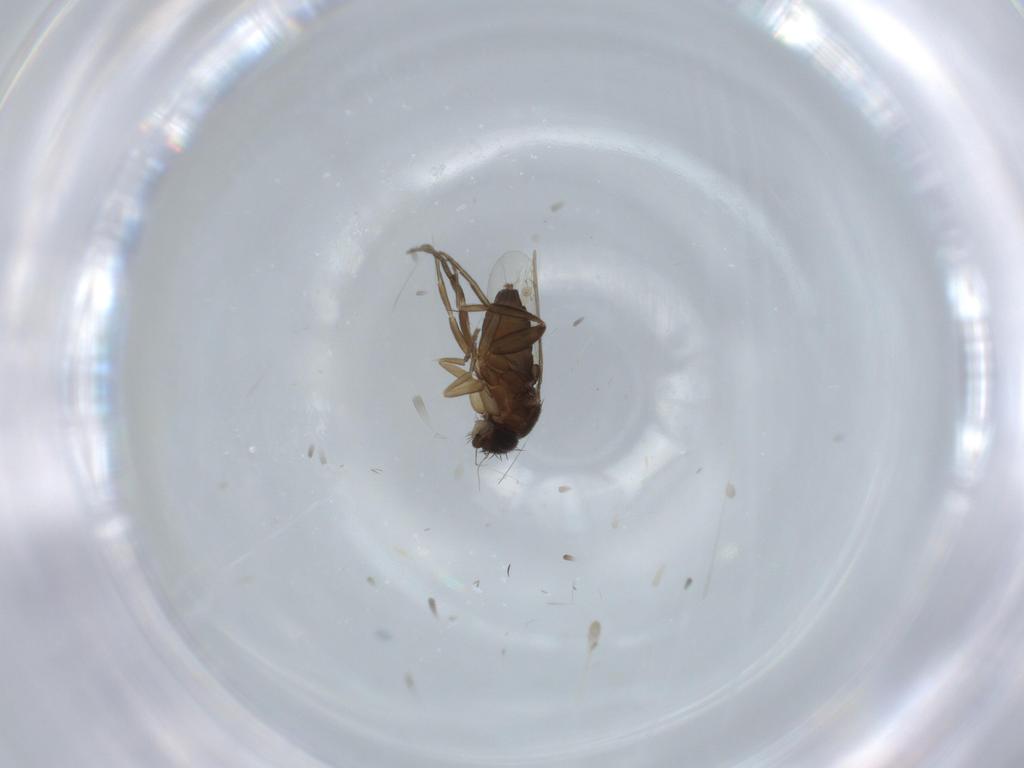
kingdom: Animalia
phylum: Arthropoda
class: Insecta
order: Diptera
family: Phoridae
